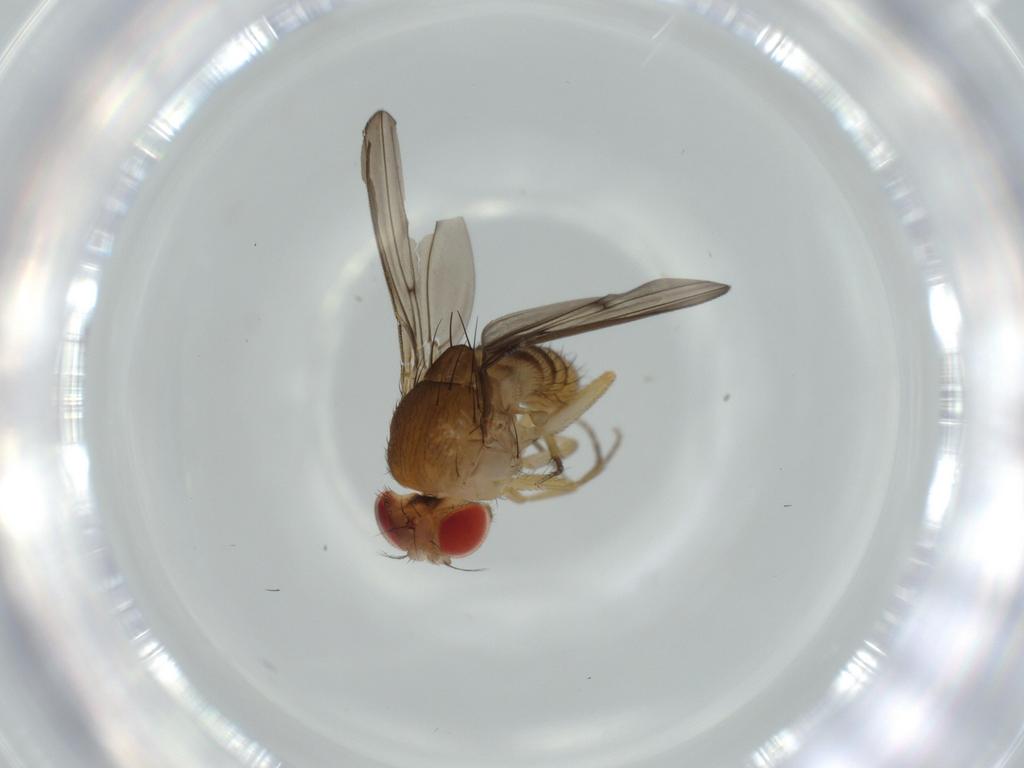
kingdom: Animalia
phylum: Arthropoda
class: Insecta
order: Diptera
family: Drosophilidae
